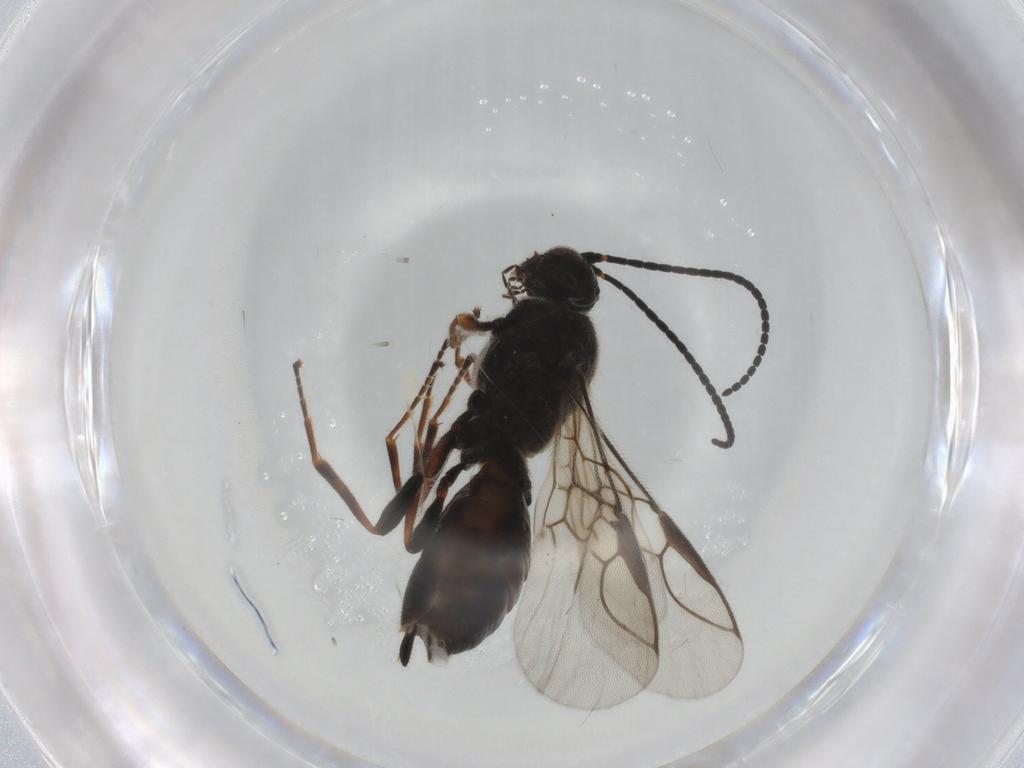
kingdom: Animalia
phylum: Arthropoda
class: Insecta
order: Hymenoptera
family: Braconidae
